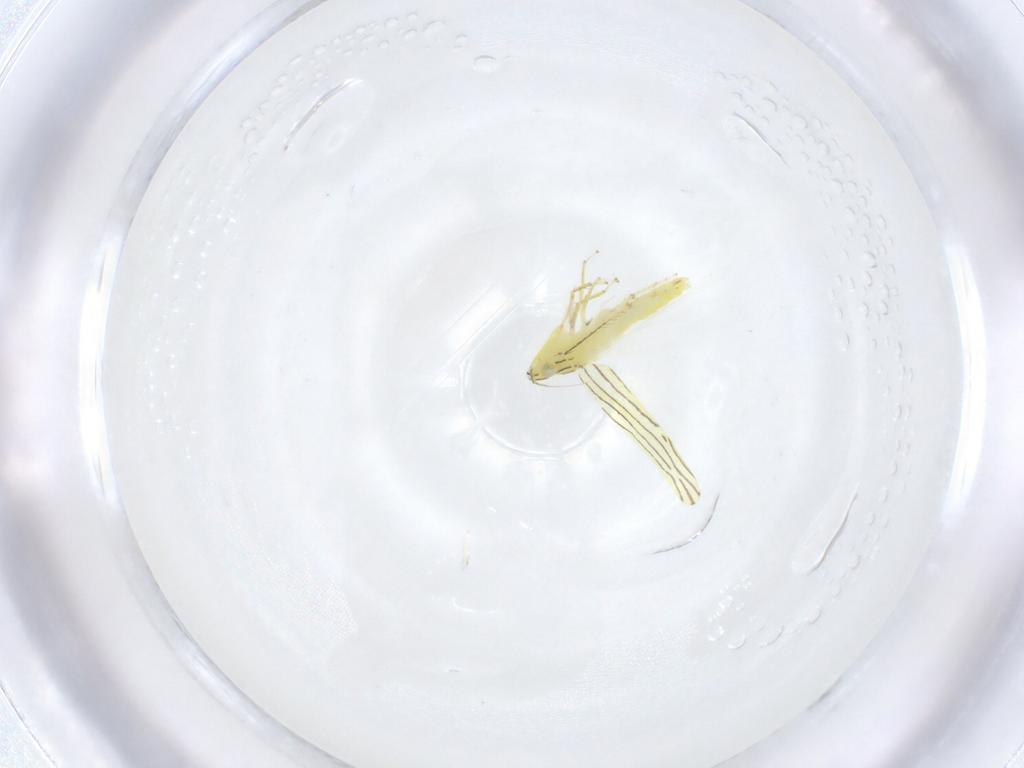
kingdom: Animalia
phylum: Arthropoda
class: Insecta
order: Hemiptera
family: Cicadellidae
